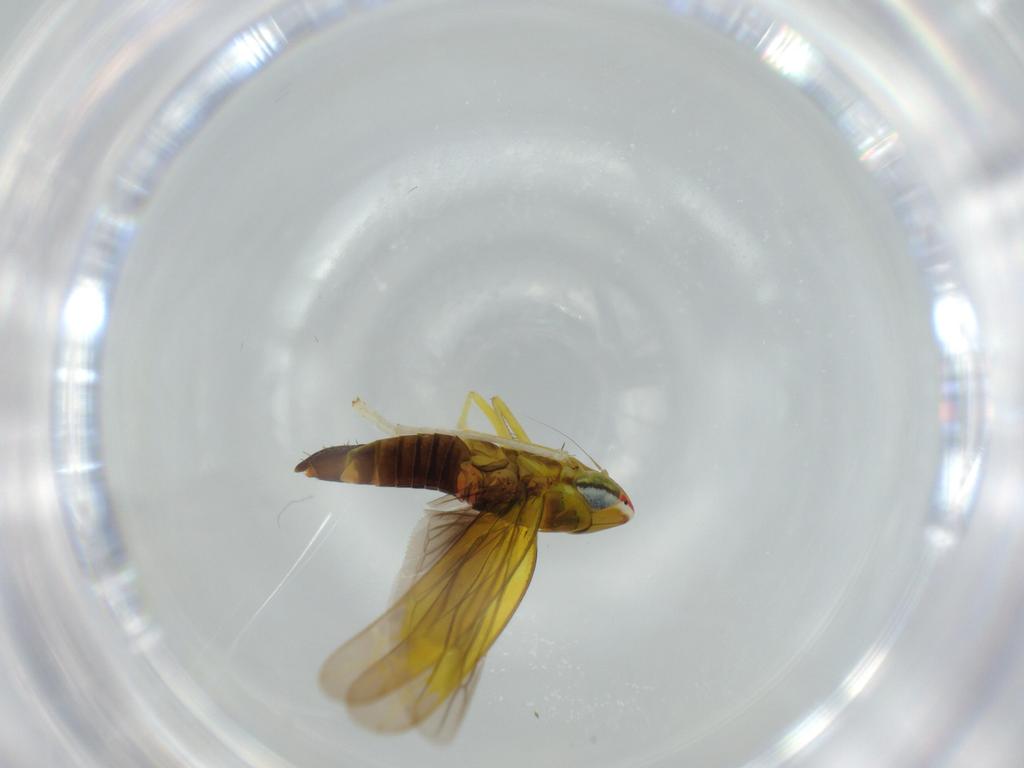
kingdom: Animalia
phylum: Arthropoda
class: Insecta
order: Hemiptera
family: Cicadellidae
